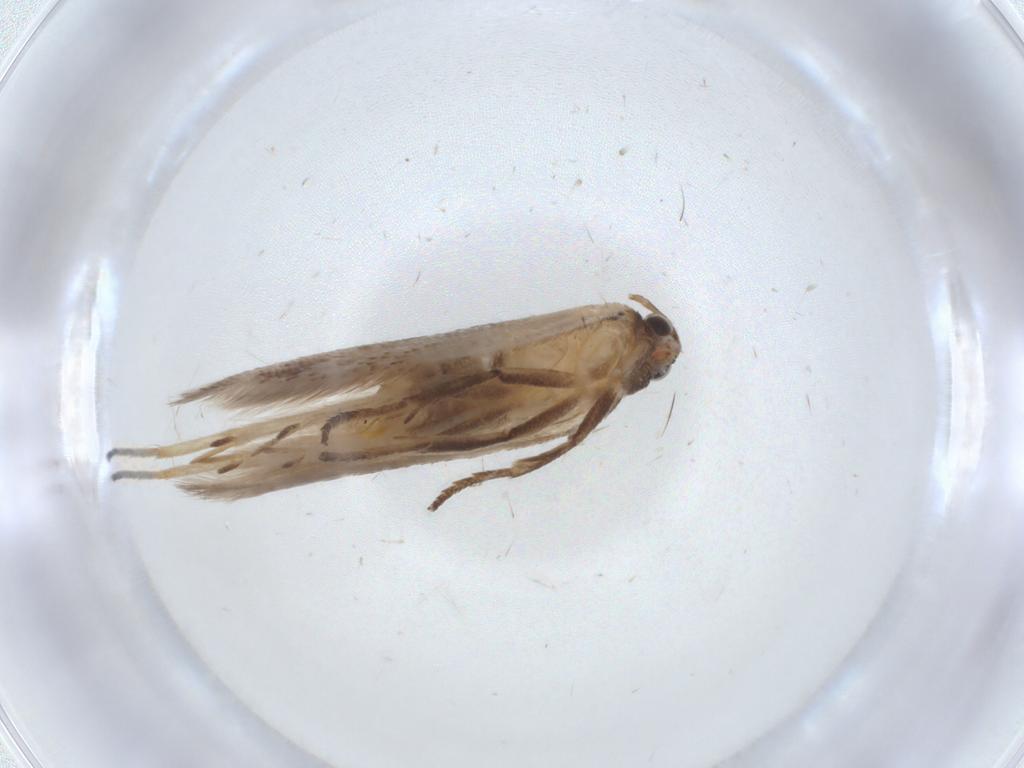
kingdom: Animalia
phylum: Arthropoda
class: Insecta
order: Lepidoptera
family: Gelechiidae
